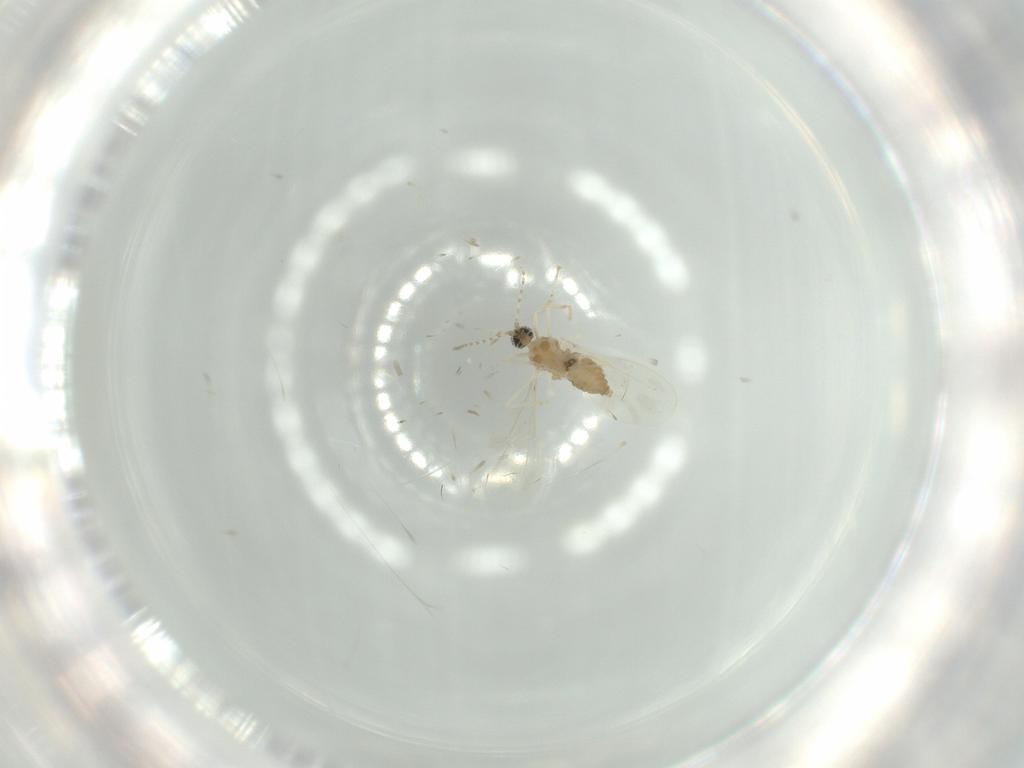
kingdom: Animalia
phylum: Arthropoda
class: Insecta
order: Diptera
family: Cecidomyiidae
